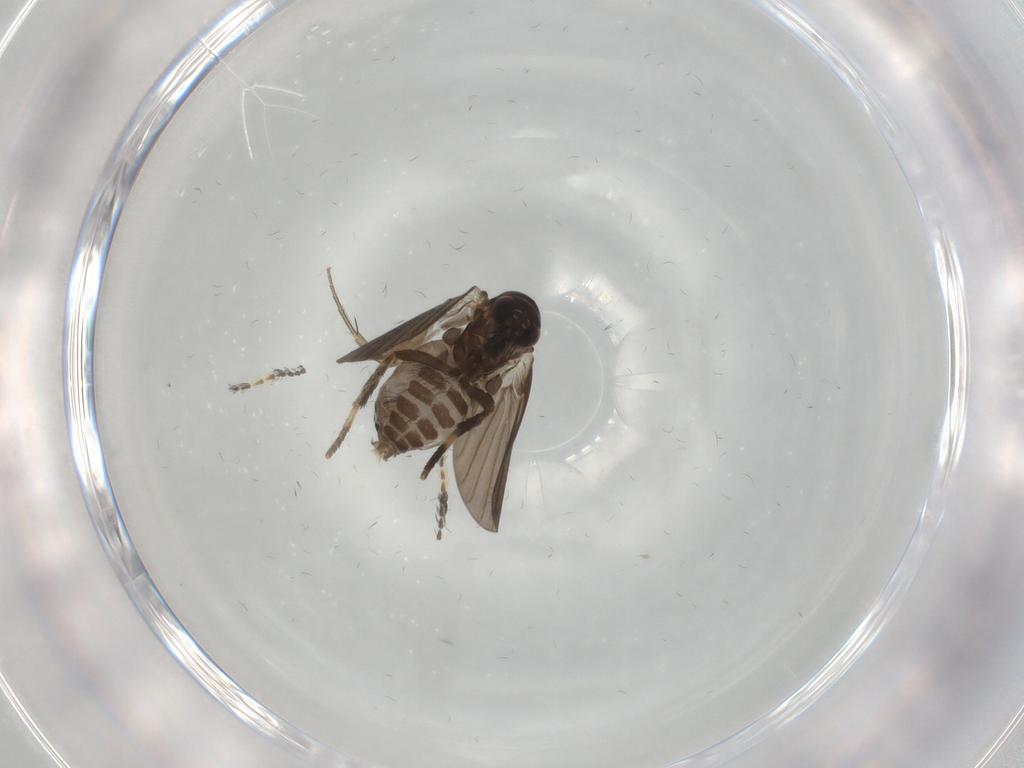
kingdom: Animalia
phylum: Arthropoda
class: Insecta
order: Diptera
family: Psychodidae
